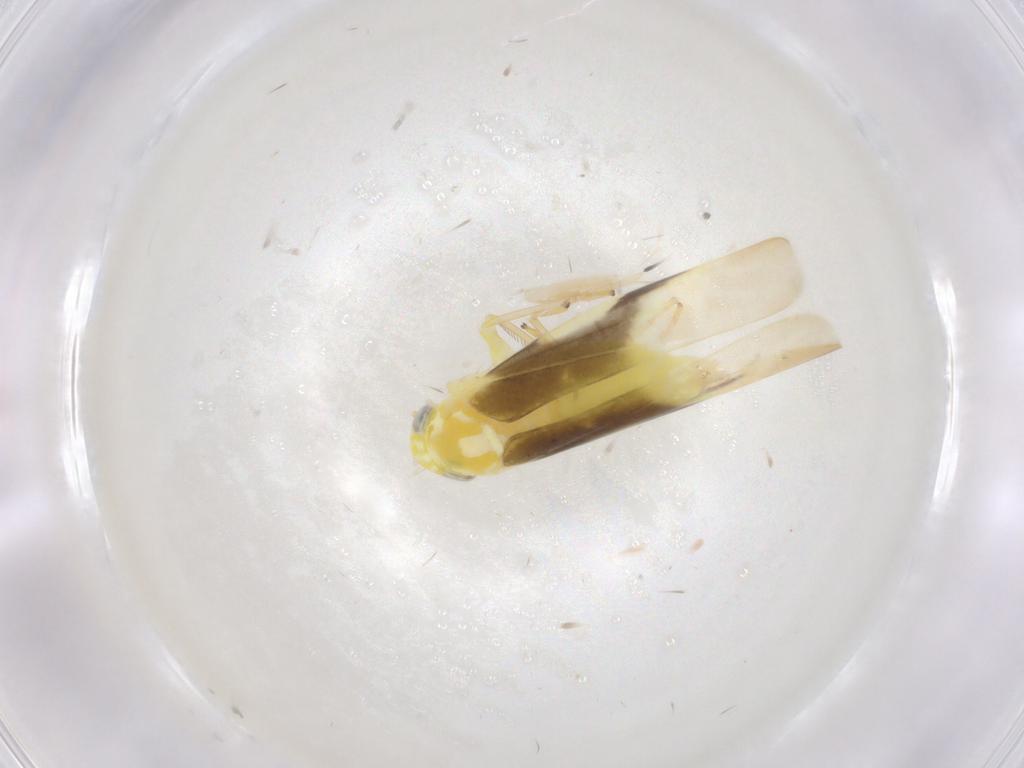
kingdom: Animalia
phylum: Arthropoda
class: Insecta
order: Hemiptera
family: Cicadellidae
